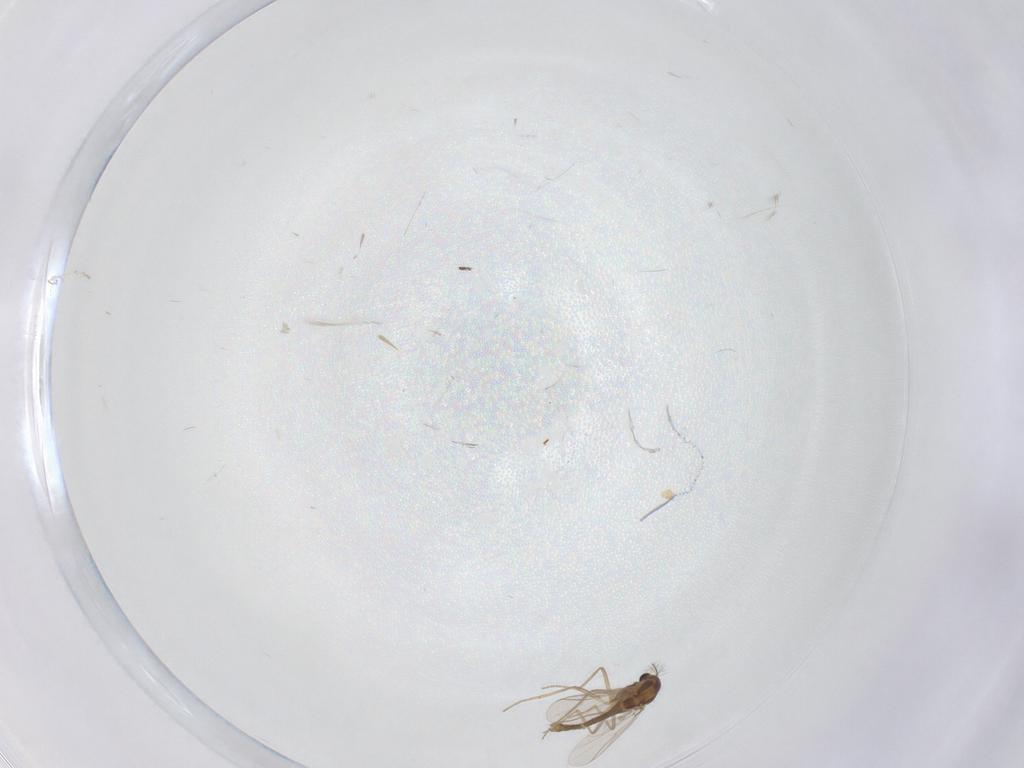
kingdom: Animalia
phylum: Arthropoda
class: Insecta
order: Diptera
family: Chironomidae
